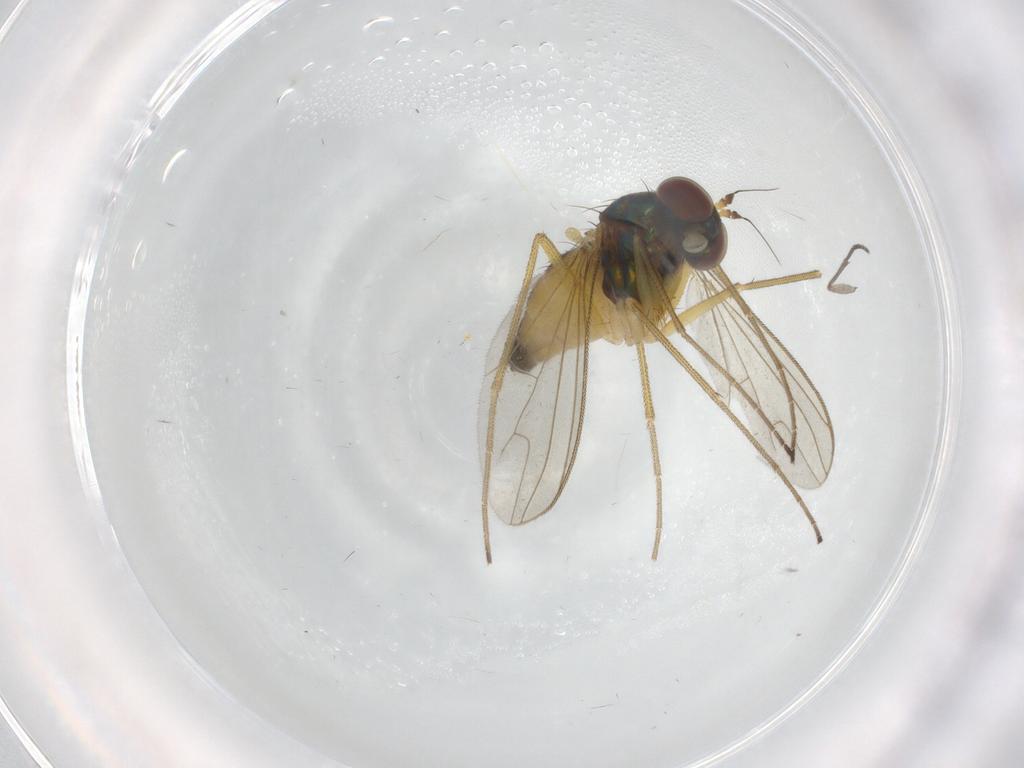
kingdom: Animalia
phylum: Arthropoda
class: Insecta
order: Diptera
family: Dolichopodidae
